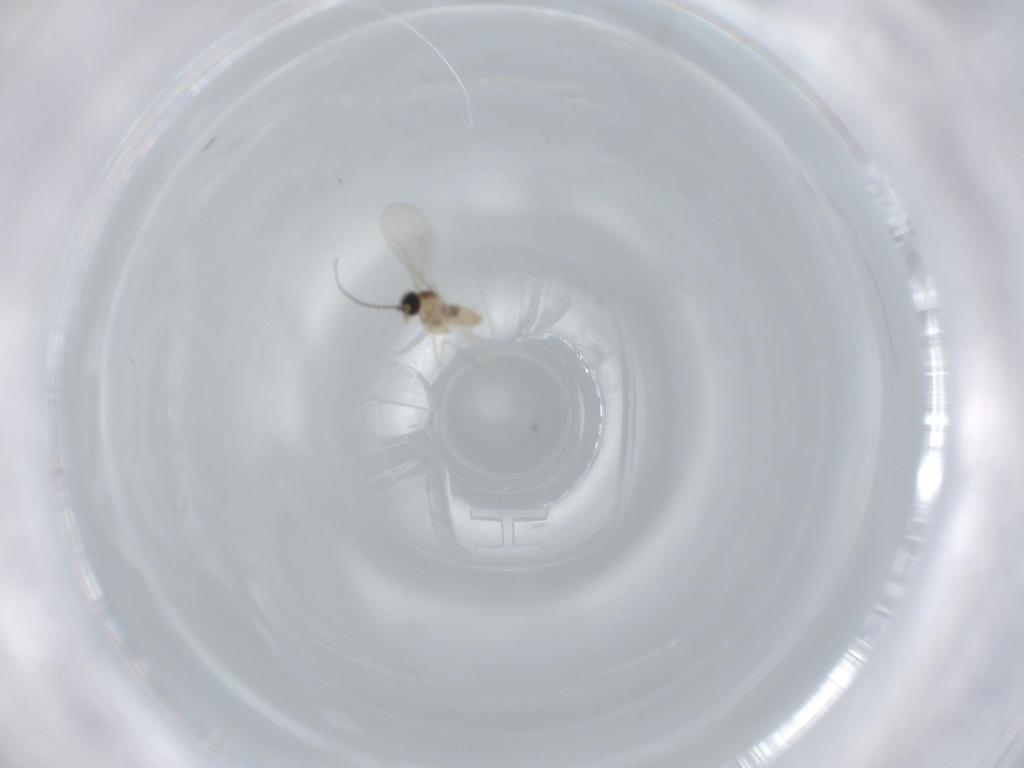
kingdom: Animalia
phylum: Arthropoda
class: Insecta
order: Diptera
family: Cecidomyiidae
